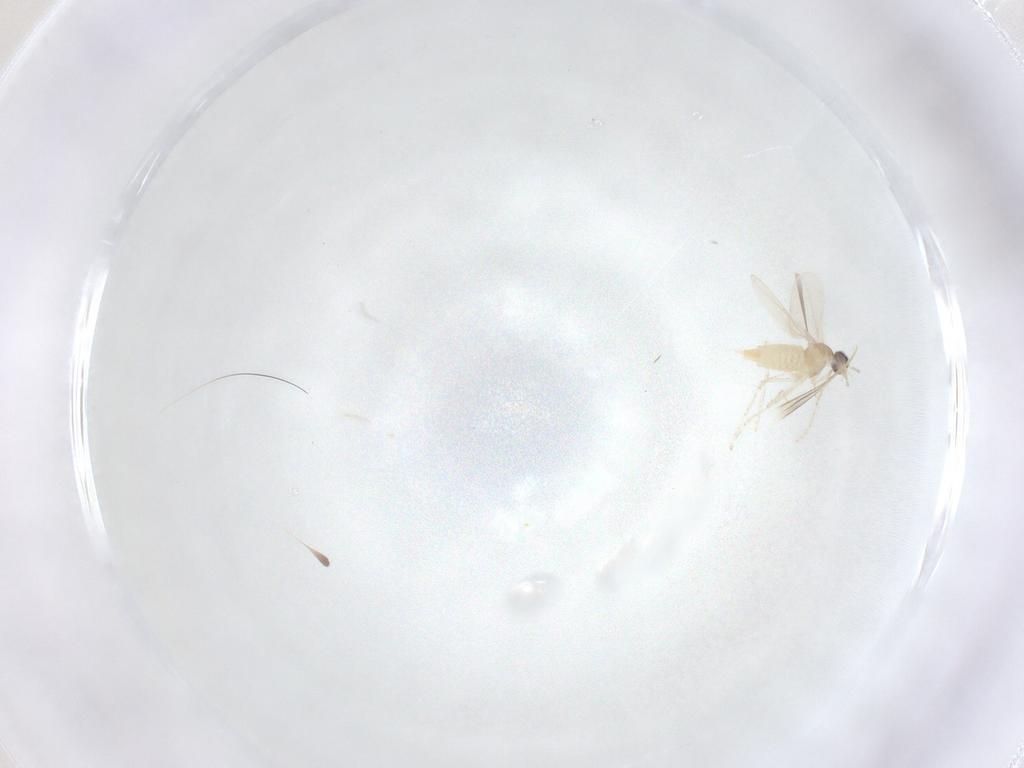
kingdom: Animalia
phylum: Arthropoda
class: Insecta
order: Diptera
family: Cecidomyiidae
